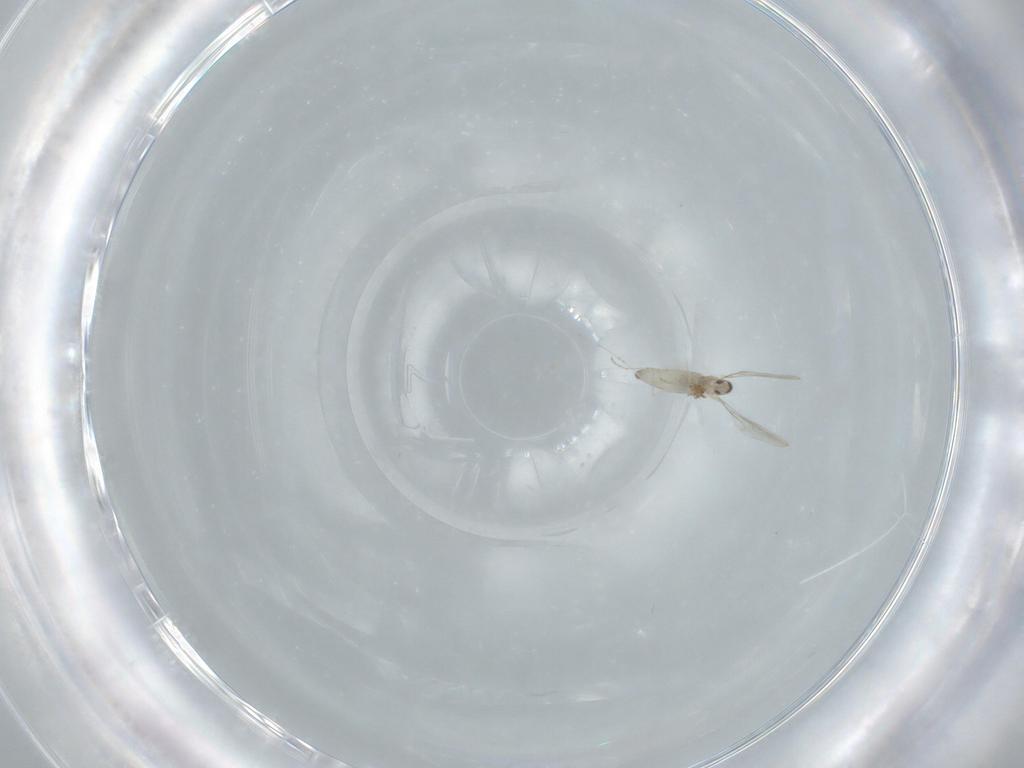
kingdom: Animalia
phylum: Arthropoda
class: Insecta
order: Diptera
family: Cecidomyiidae
